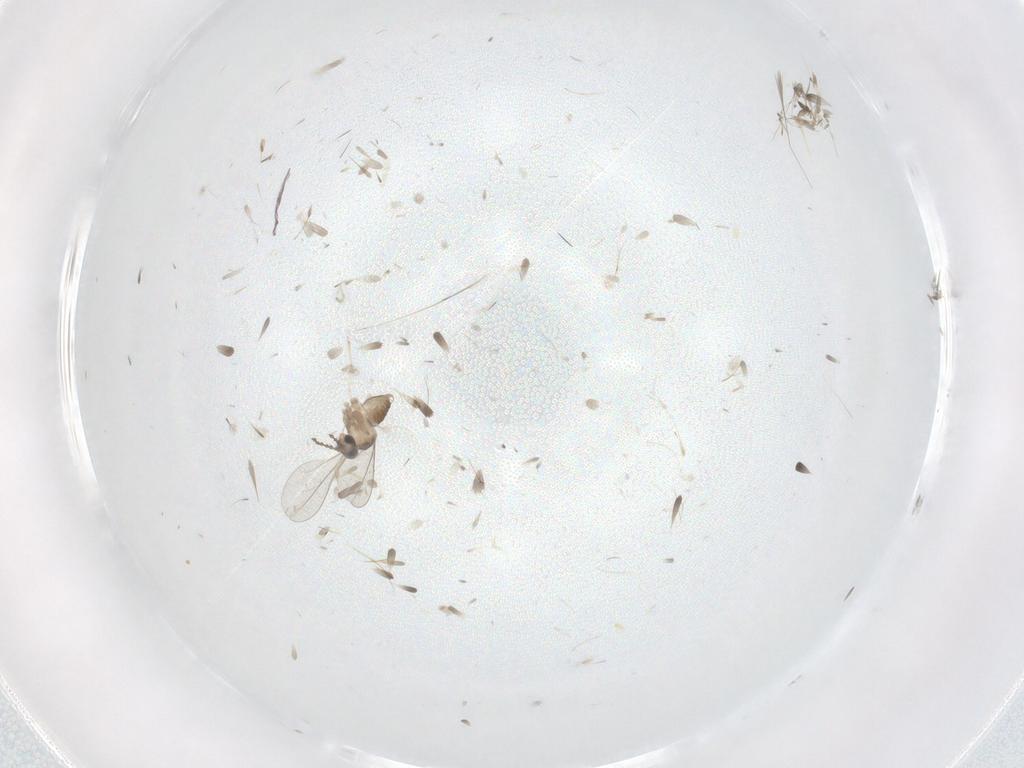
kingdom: Animalia
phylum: Arthropoda
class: Insecta
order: Diptera
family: Cecidomyiidae
